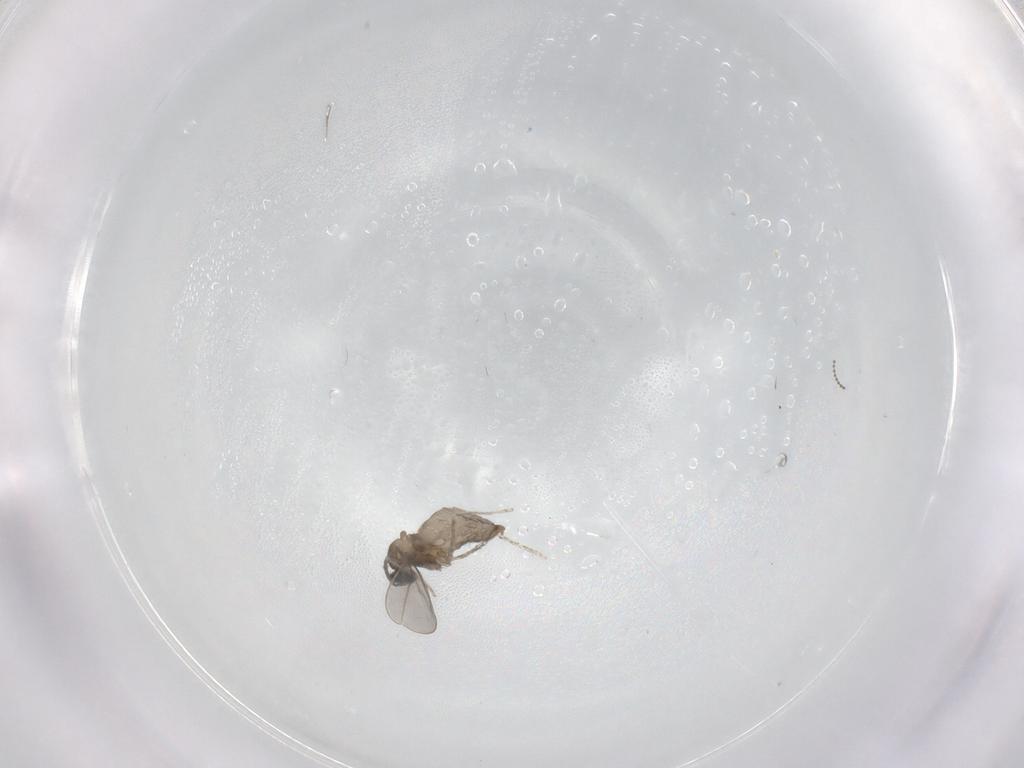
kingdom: Animalia
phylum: Arthropoda
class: Insecta
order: Diptera
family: Cecidomyiidae
